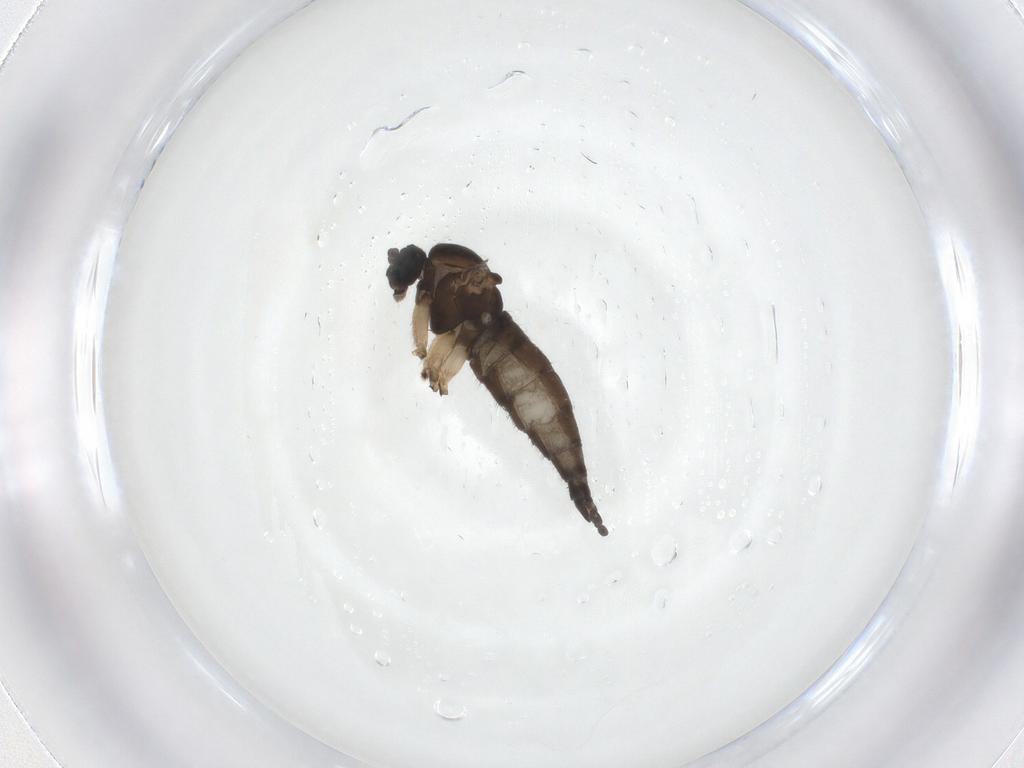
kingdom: Animalia
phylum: Arthropoda
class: Insecta
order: Diptera
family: Sciaridae
